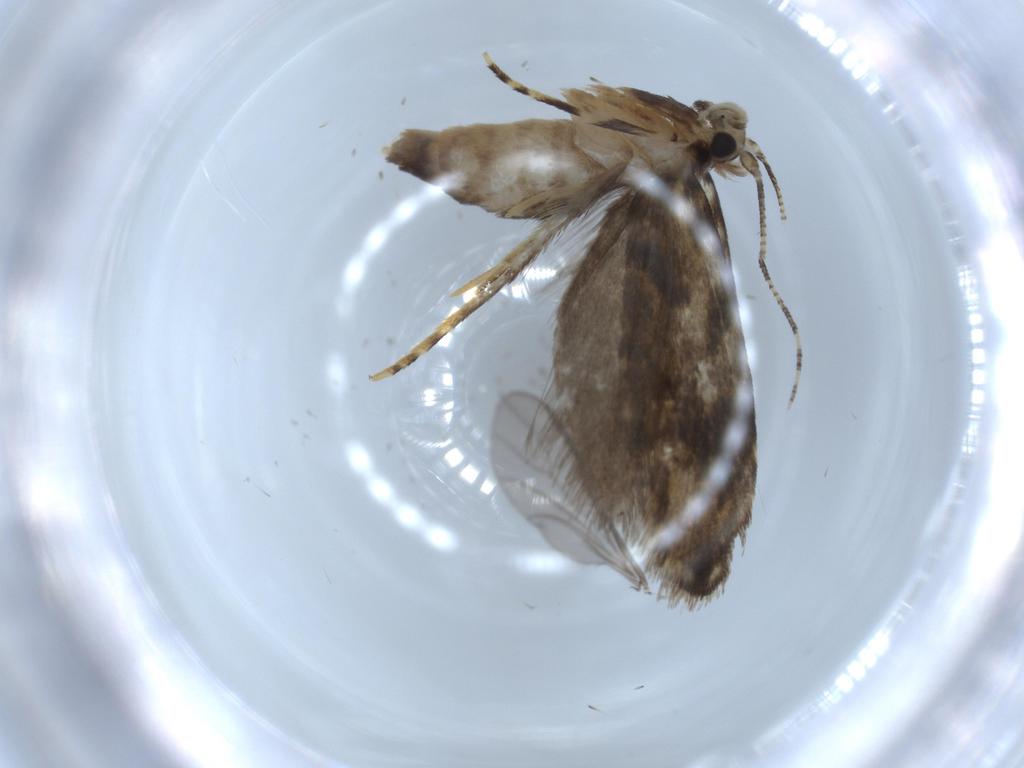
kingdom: Animalia
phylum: Arthropoda
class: Insecta
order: Lepidoptera
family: Tineidae
